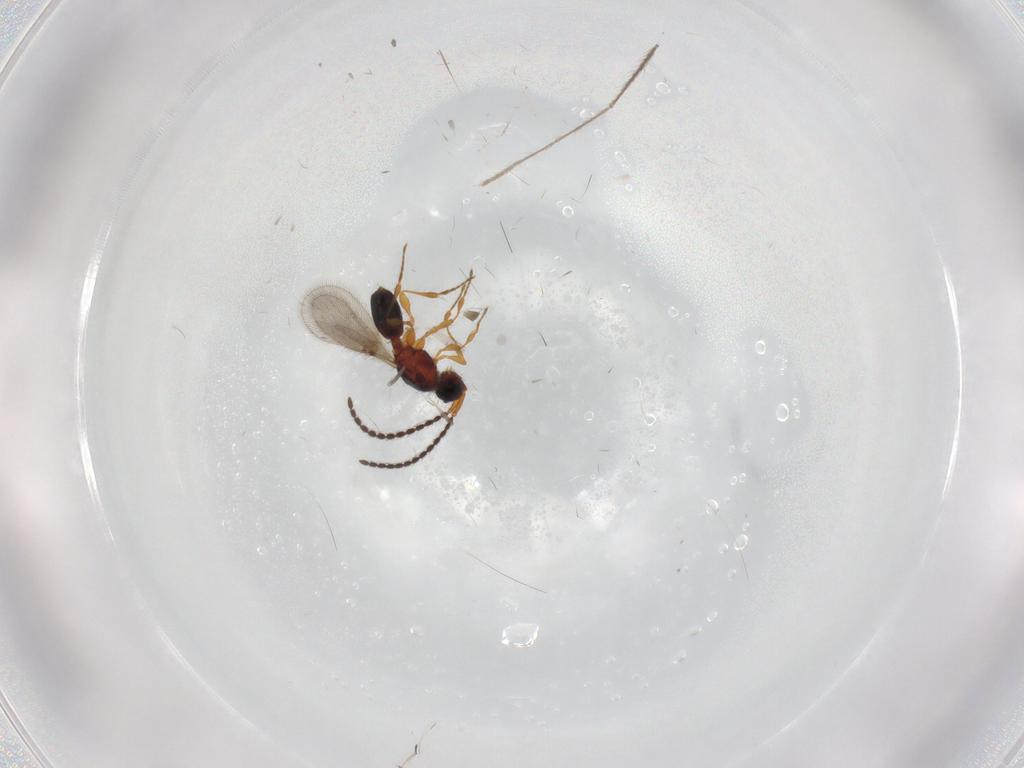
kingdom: Animalia
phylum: Arthropoda
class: Insecta
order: Hymenoptera
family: Diapriidae
